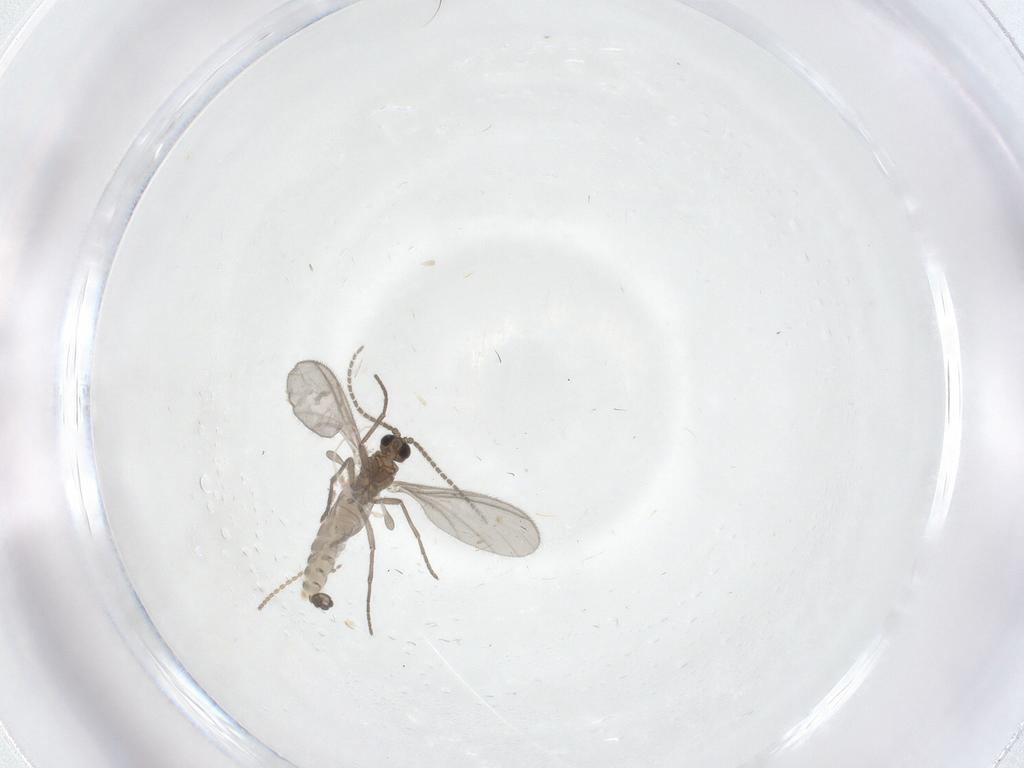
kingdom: Animalia
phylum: Arthropoda
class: Insecta
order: Diptera
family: Sciaridae
